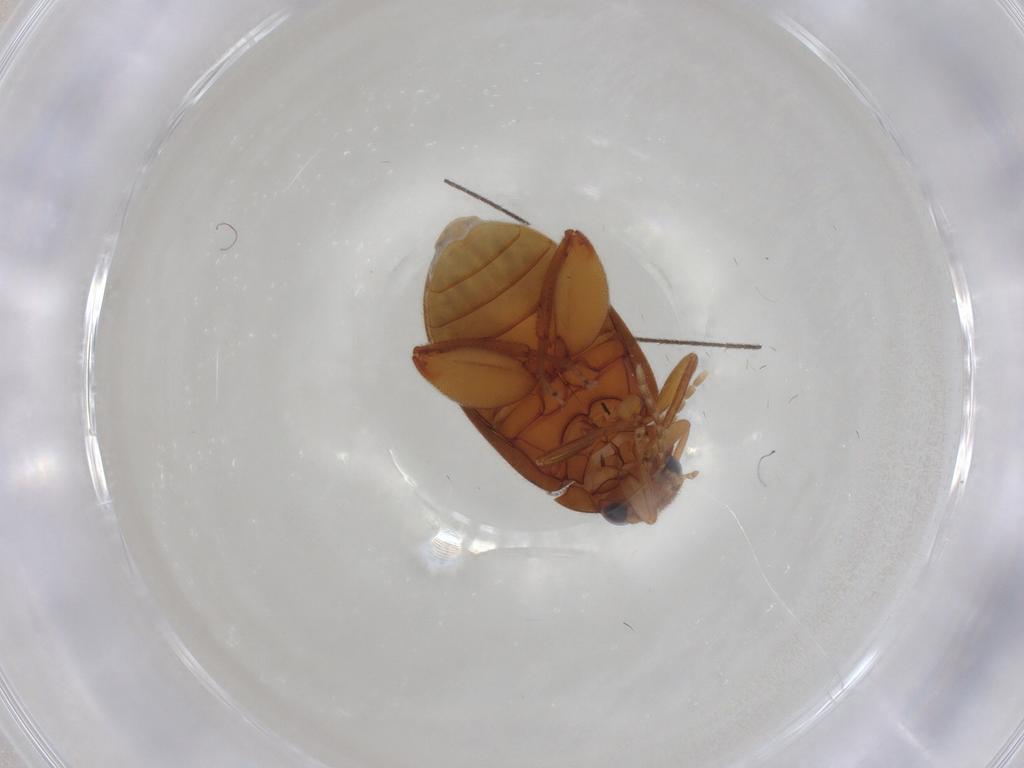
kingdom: Animalia
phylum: Arthropoda
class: Insecta
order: Coleoptera
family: Scirtidae
